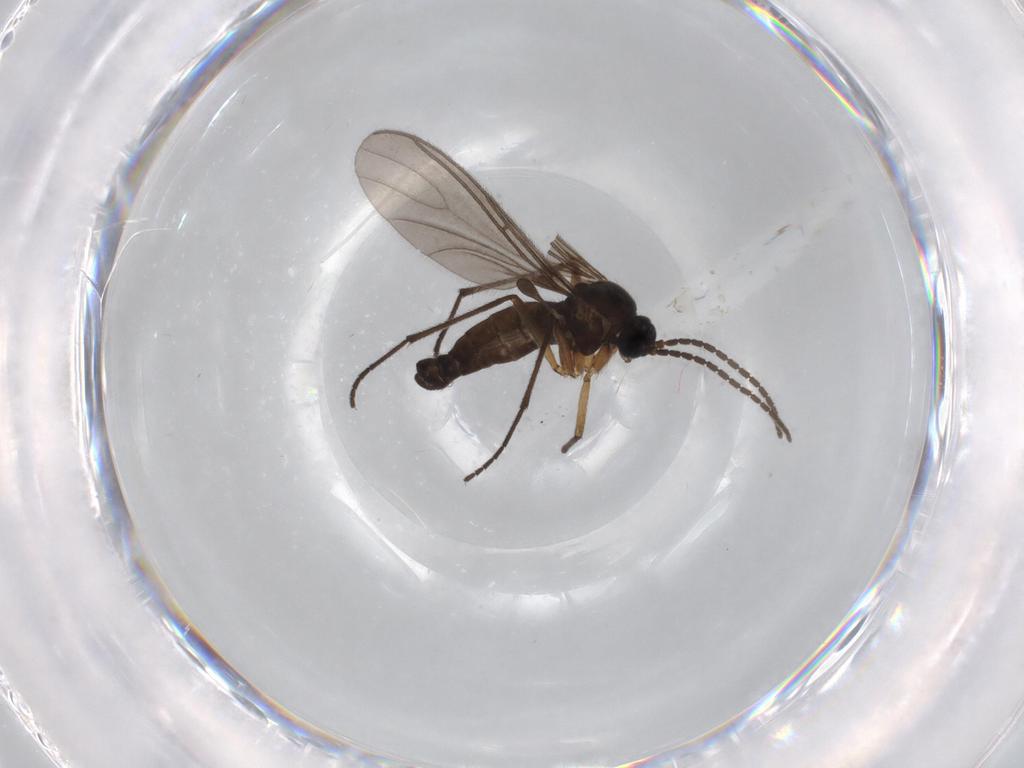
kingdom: Animalia
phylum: Arthropoda
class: Insecta
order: Diptera
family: Sciaridae
